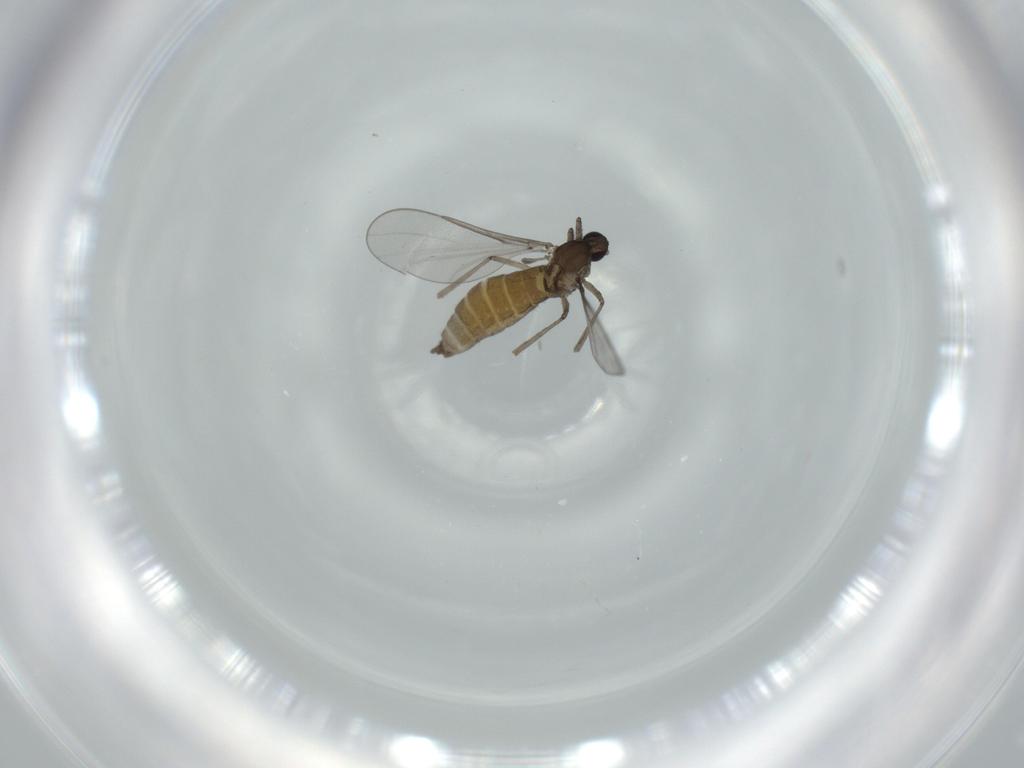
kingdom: Animalia
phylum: Arthropoda
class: Insecta
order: Diptera
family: Cecidomyiidae
